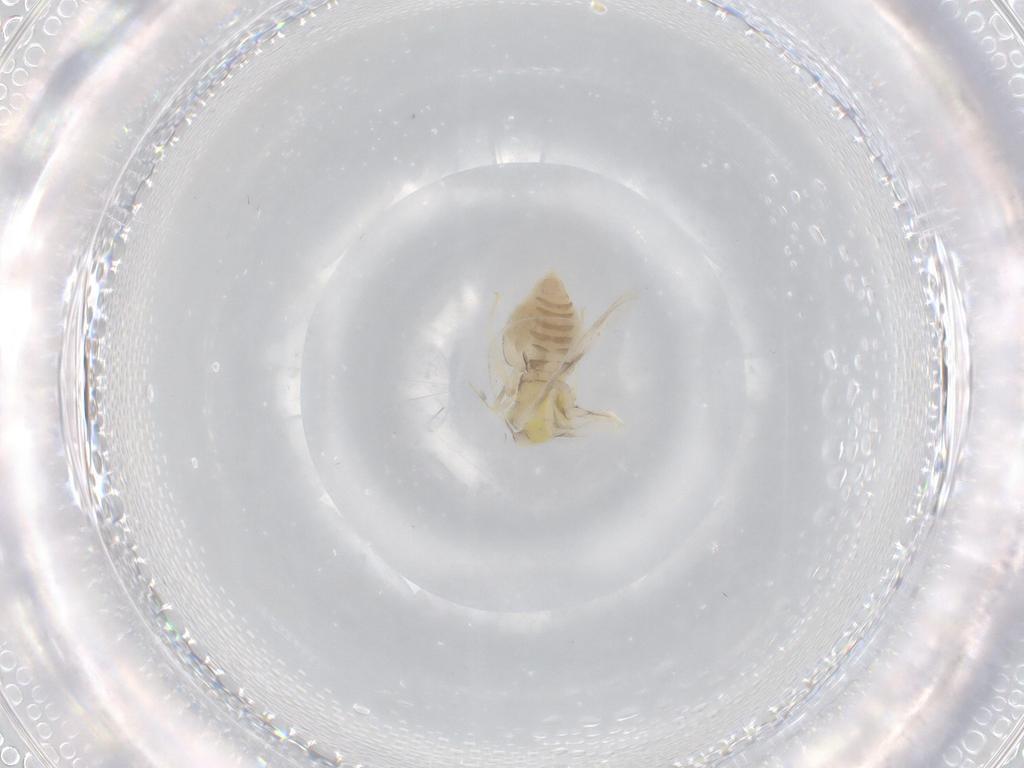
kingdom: Animalia
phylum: Arthropoda
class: Insecta
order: Hemiptera
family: Aleyrodidae
